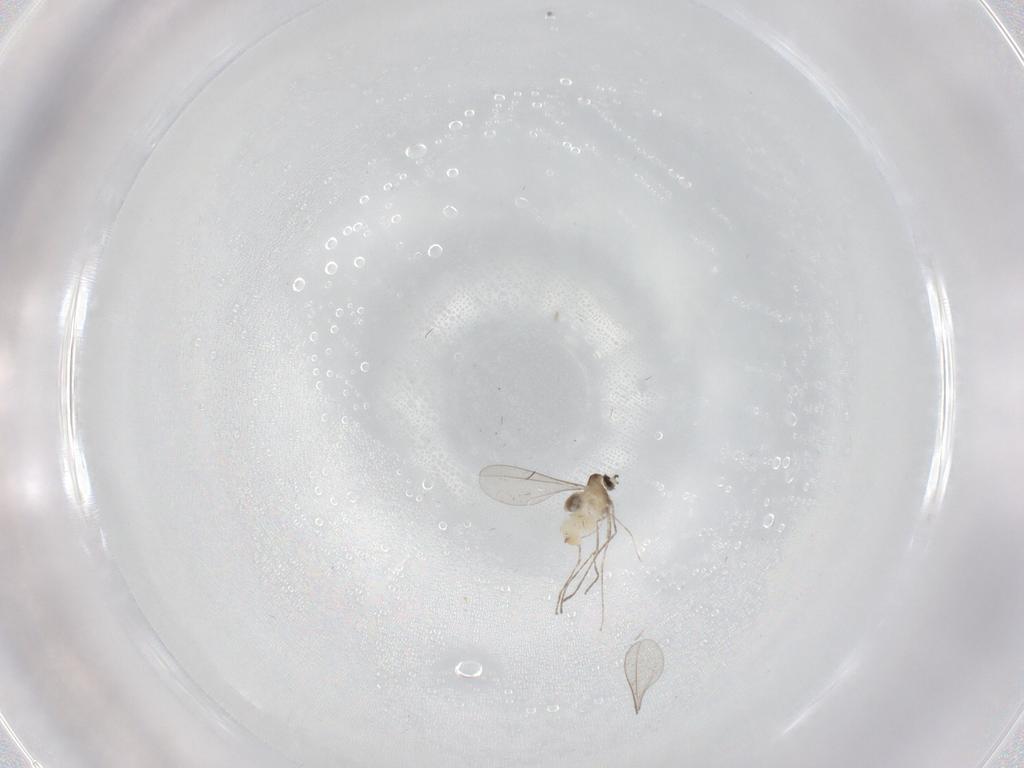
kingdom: Animalia
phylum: Arthropoda
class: Insecta
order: Diptera
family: Cecidomyiidae
